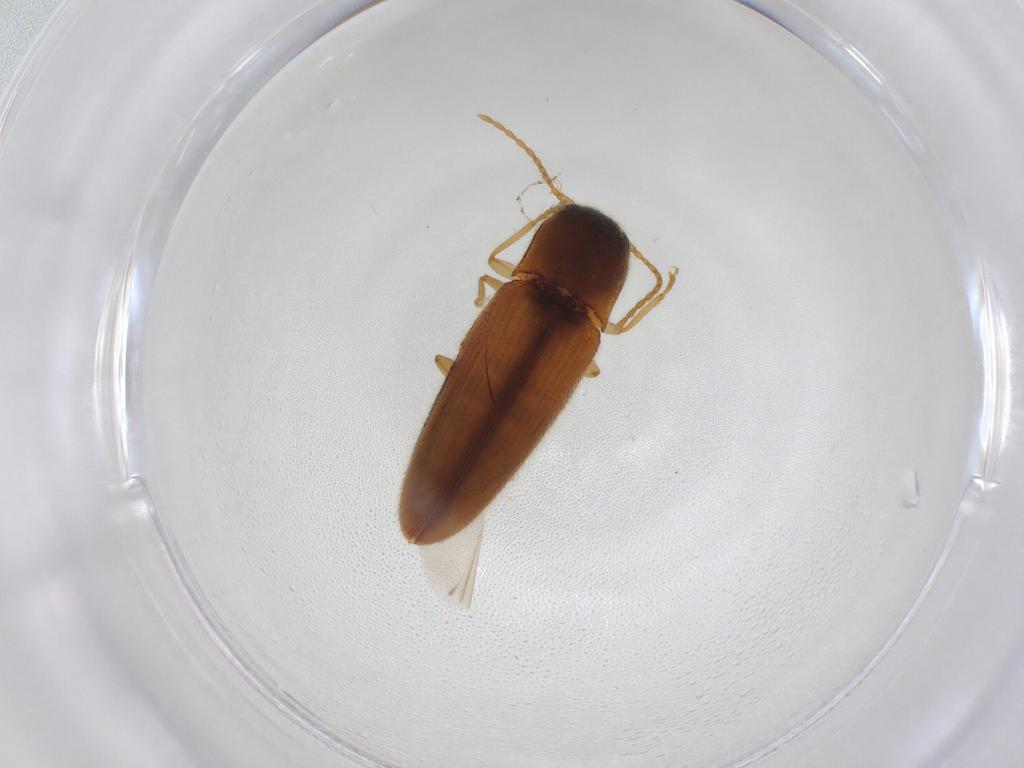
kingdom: Animalia
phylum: Arthropoda
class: Insecta
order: Coleoptera
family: Elateridae
